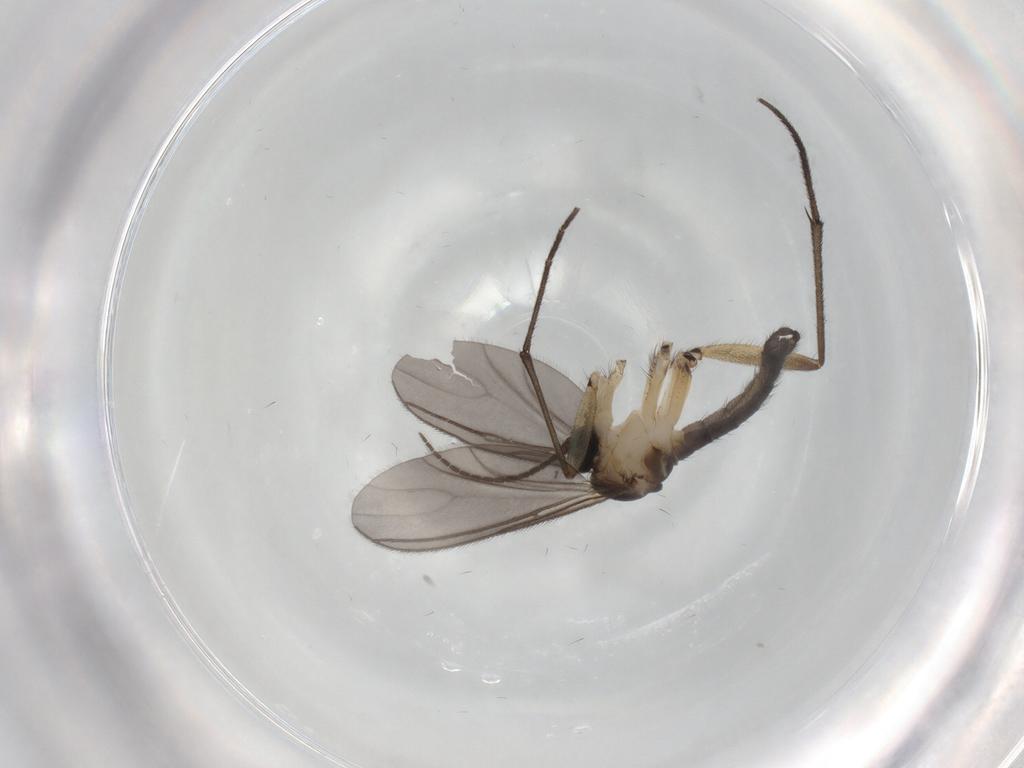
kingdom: Animalia
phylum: Arthropoda
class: Insecta
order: Diptera
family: Sciaridae
